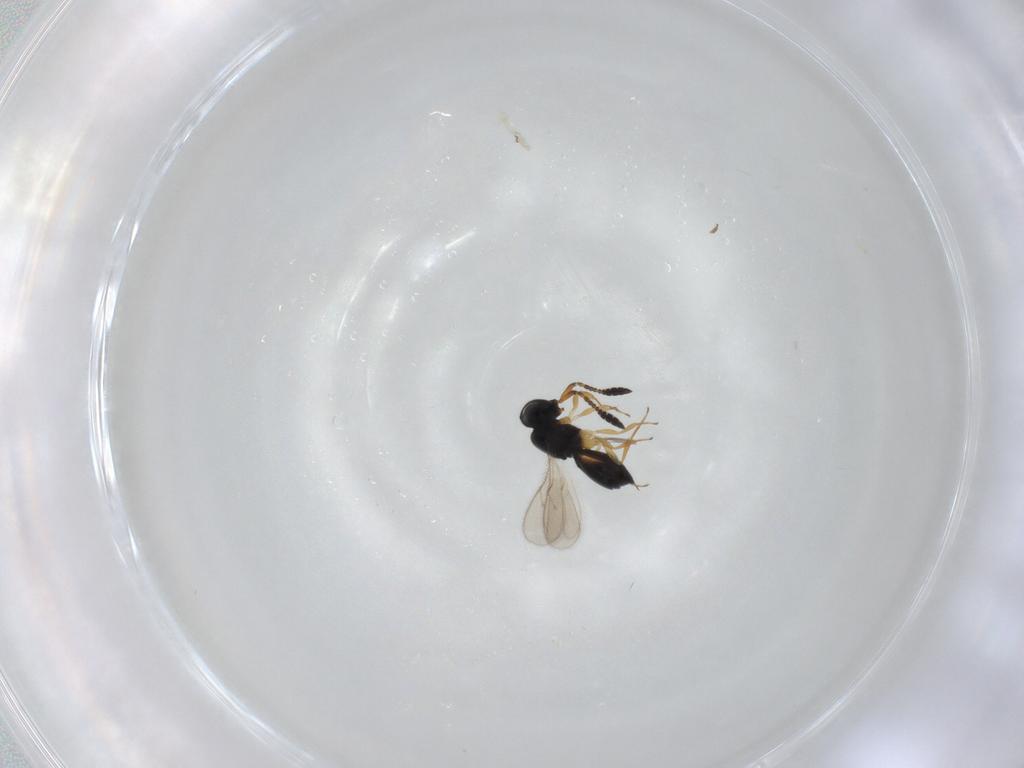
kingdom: Animalia
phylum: Arthropoda
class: Insecta
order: Hymenoptera
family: Scelionidae
